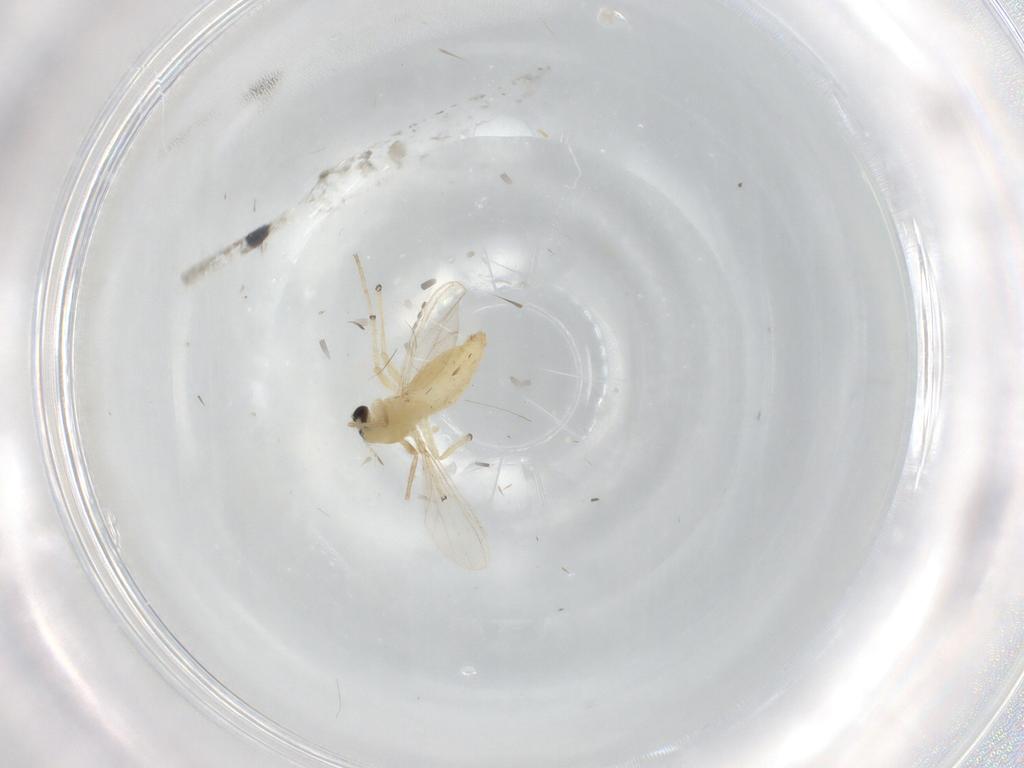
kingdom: Animalia
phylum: Arthropoda
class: Insecta
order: Diptera
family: Chironomidae
